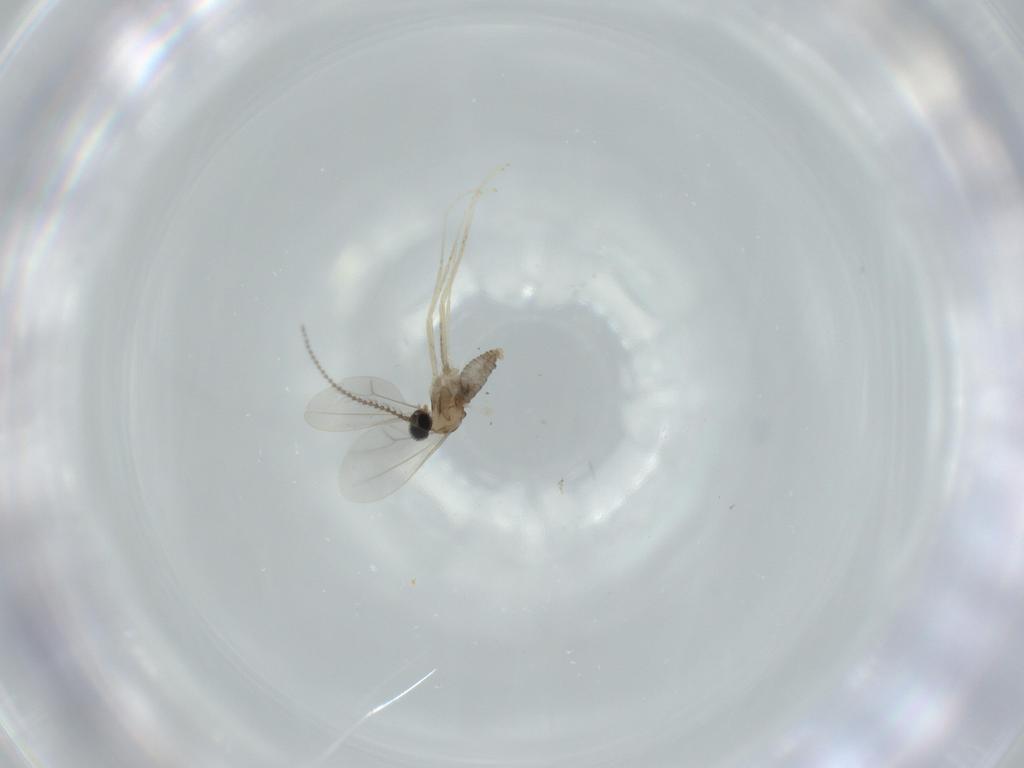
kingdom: Animalia
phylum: Arthropoda
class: Insecta
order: Diptera
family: Cecidomyiidae
